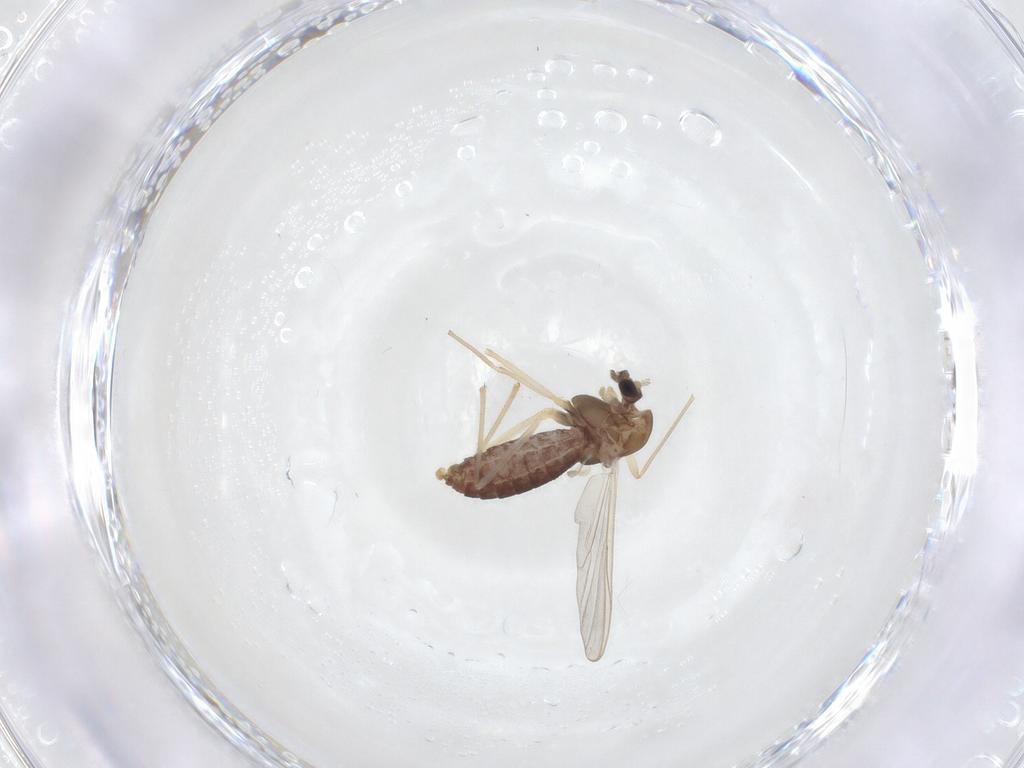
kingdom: Animalia
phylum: Arthropoda
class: Insecta
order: Diptera
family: Chironomidae
